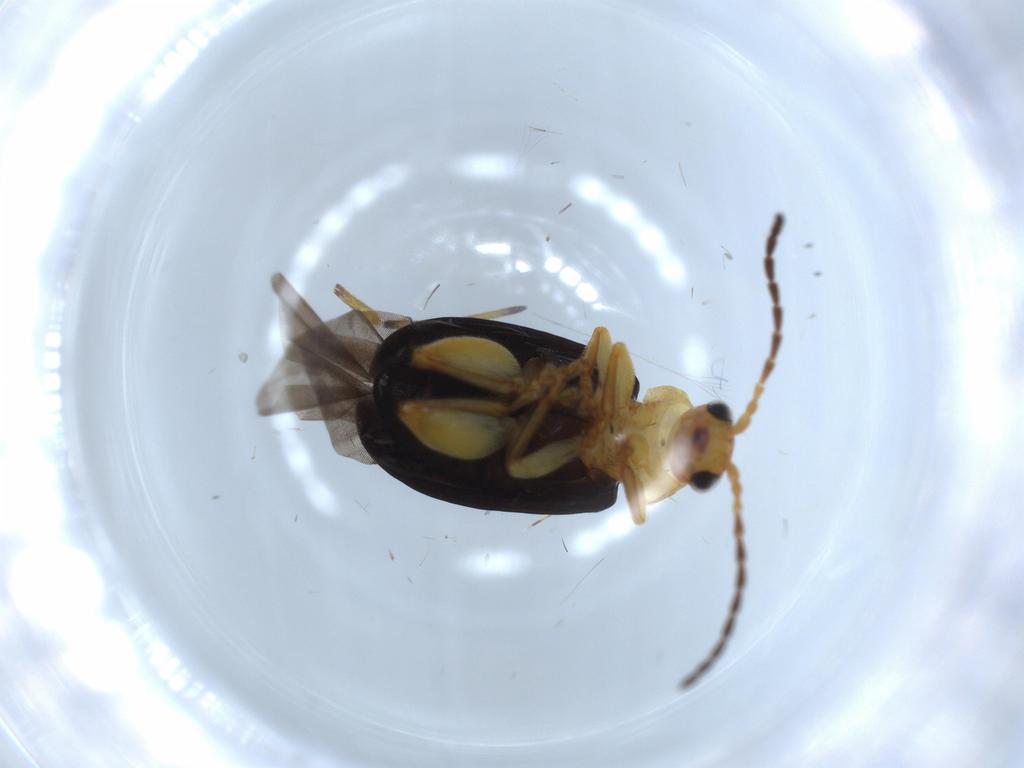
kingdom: Animalia
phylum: Arthropoda
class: Insecta
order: Coleoptera
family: Chrysomelidae
